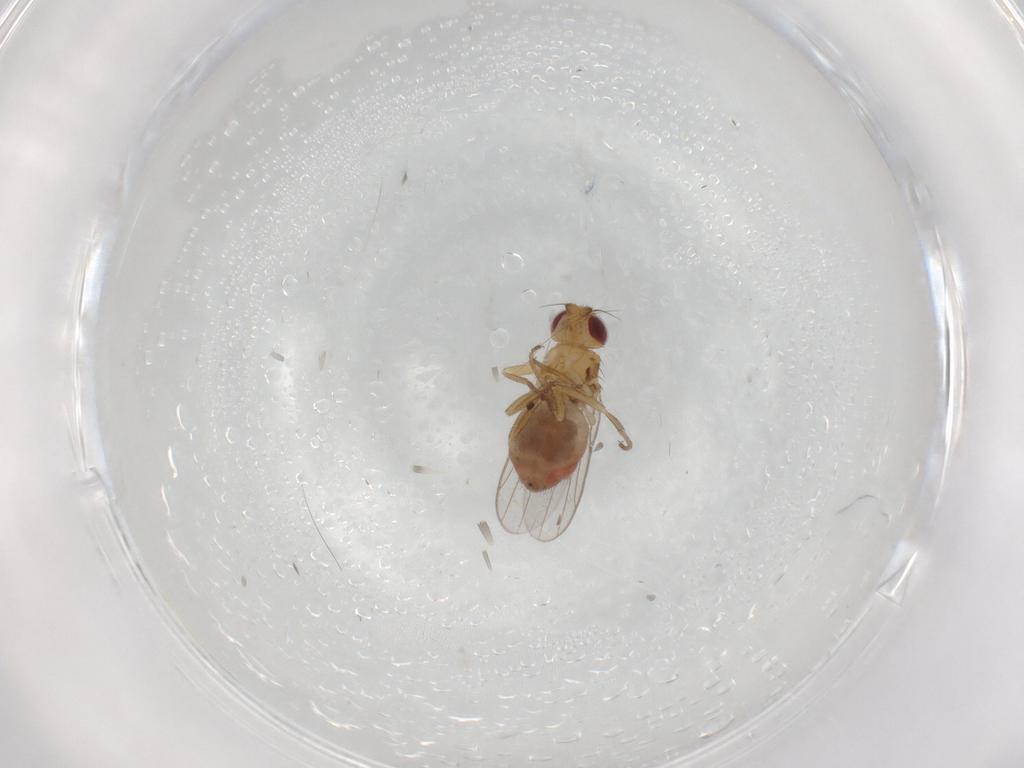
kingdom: Animalia
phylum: Arthropoda
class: Insecta
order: Diptera
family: Chloropidae
